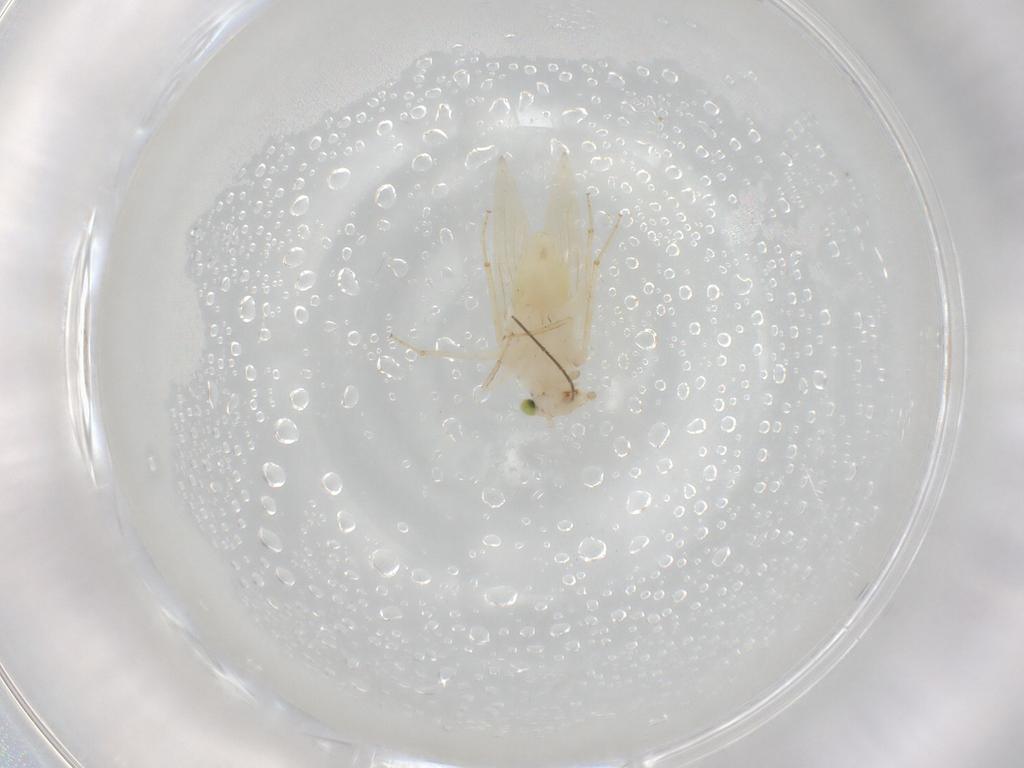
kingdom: Animalia
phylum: Arthropoda
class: Insecta
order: Psocodea
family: Lepidopsocidae
